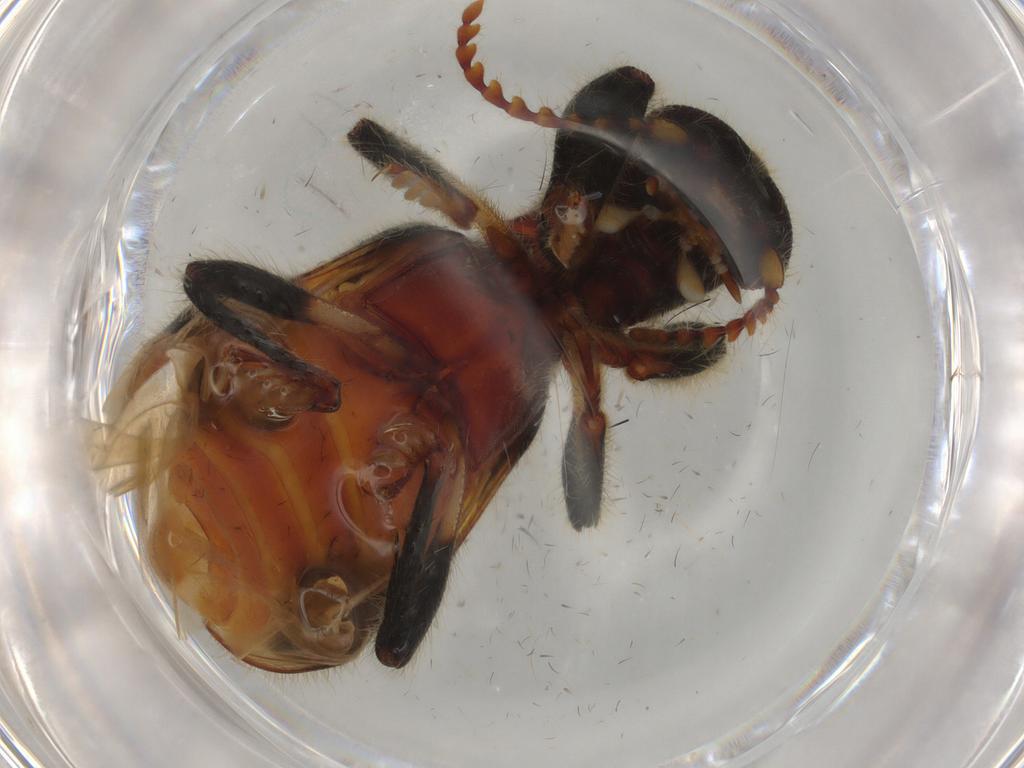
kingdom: Animalia
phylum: Arthropoda
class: Insecta
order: Coleoptera
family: Cleridae
